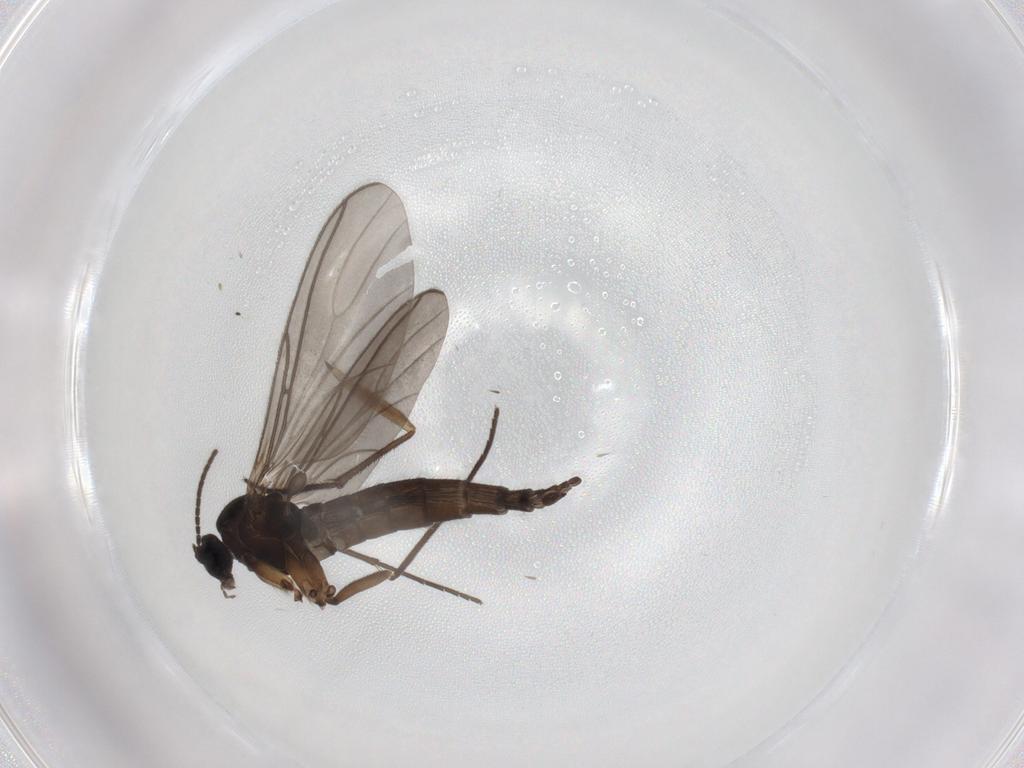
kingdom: Animalia
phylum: Arthropoda
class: Insecta
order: Diptera
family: Sciaridae
